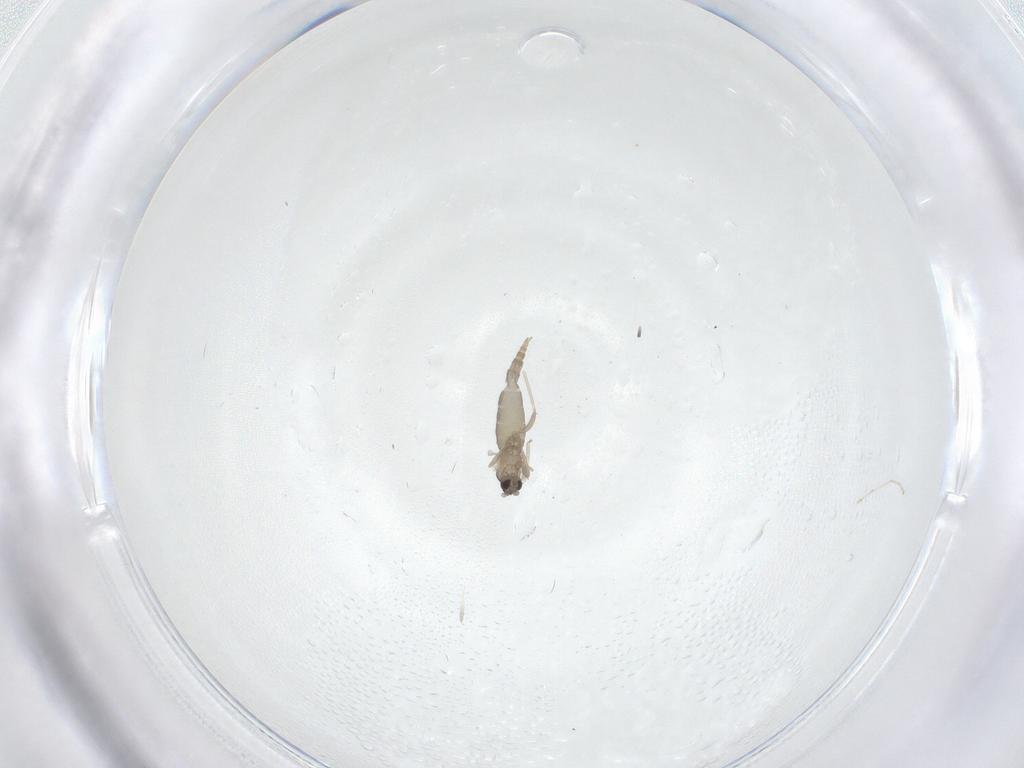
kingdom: Animalia
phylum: Arthropoda
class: Insecta
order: Diptera
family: Cecidomyiidae
